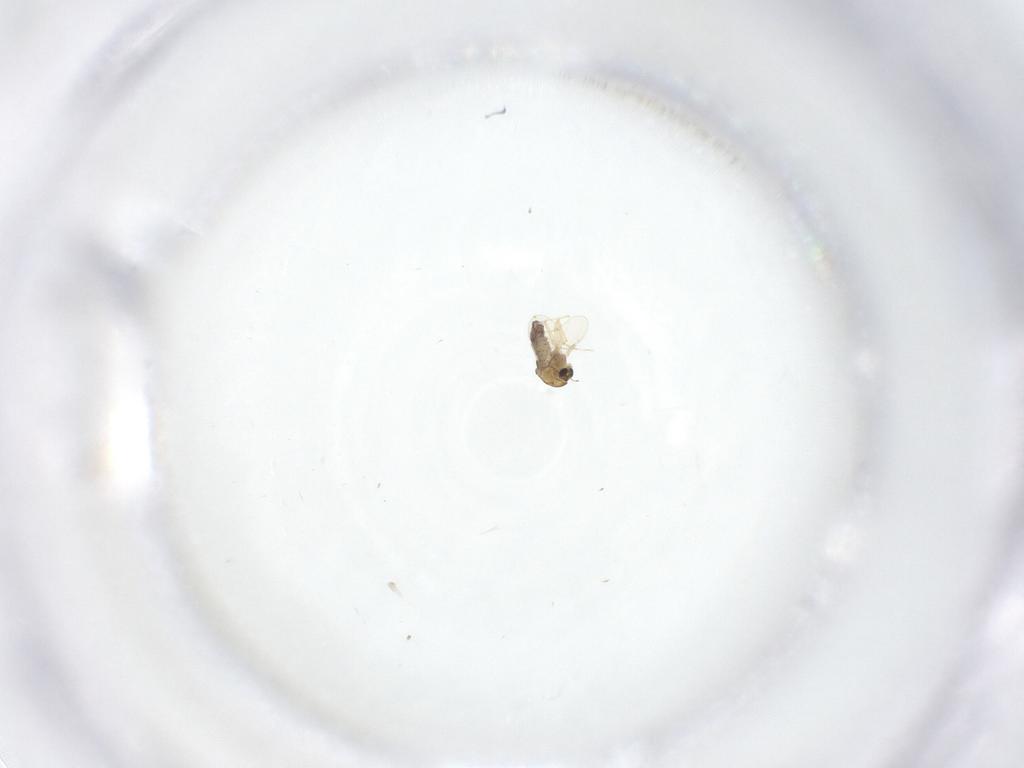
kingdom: Animalia
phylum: Arthropoda
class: Insecta
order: Diptera
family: Chironomidae
